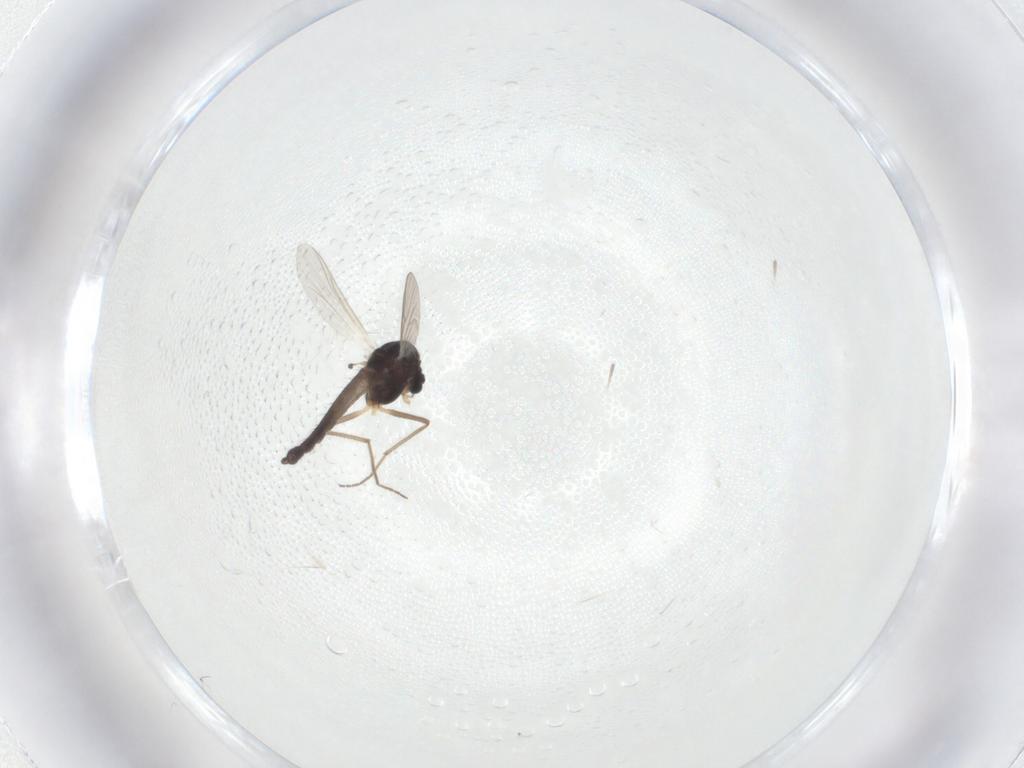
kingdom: Animalia
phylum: Arthropoda
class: Insecta
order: Diptera
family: Chironomidae
